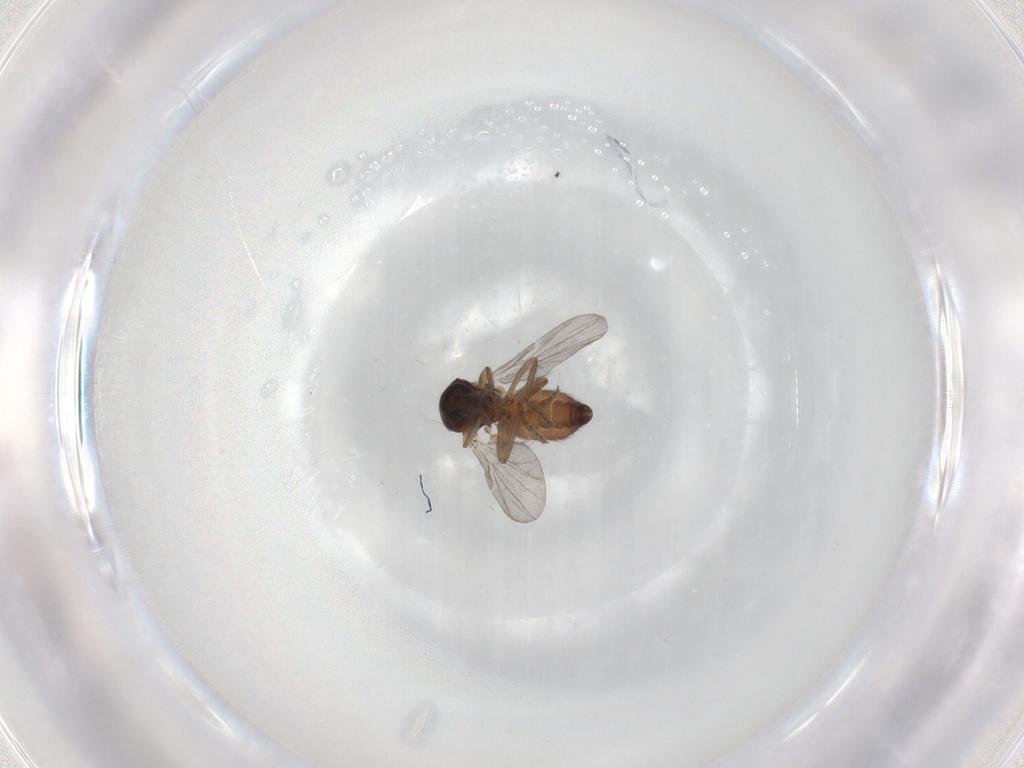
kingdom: Animalia
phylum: Arthropoda
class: Insecta
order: Diptera
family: Ceratopogonidae
